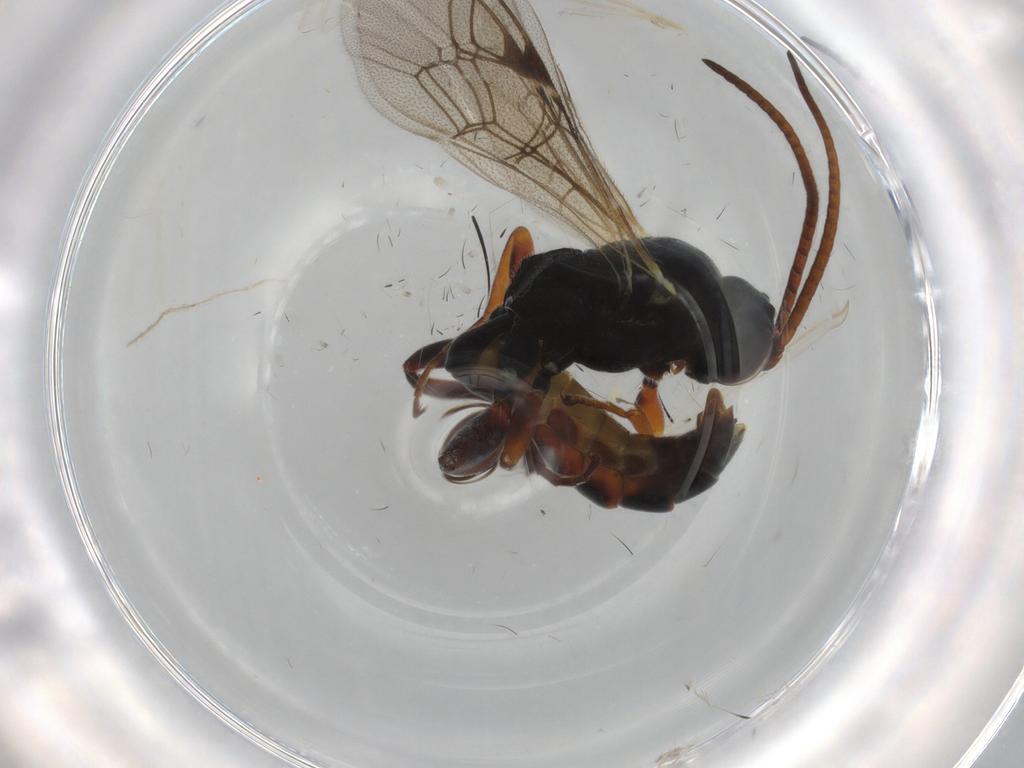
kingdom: Animalia
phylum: Arthropoda
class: Insecta
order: Hymenoptera
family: Ichneumonidae
